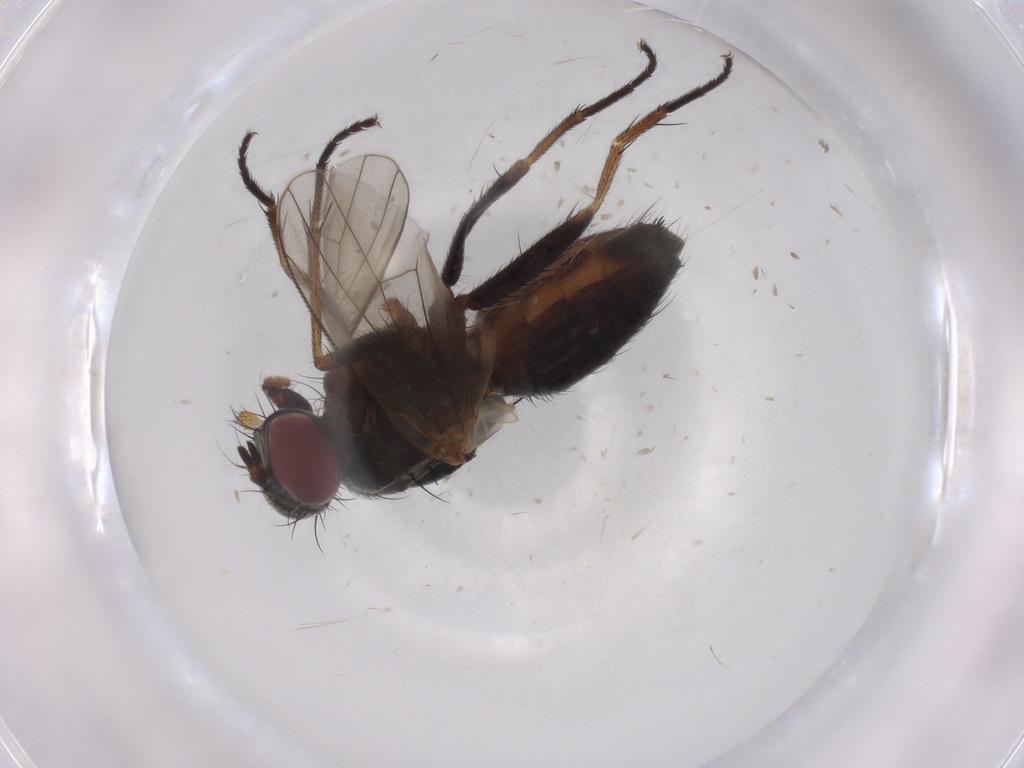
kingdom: Animalia
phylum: Arthropoda
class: Insecta
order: Diptera
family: Muscidae
